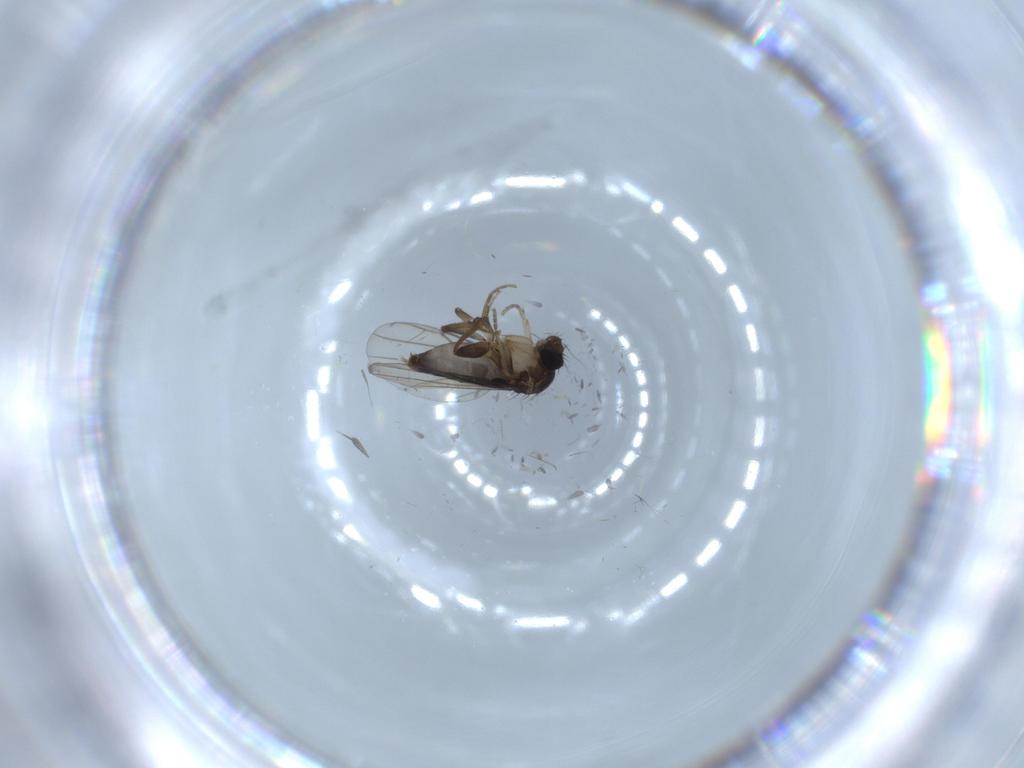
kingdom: Animalia
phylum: Arthropoda
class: Insecta
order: Diptera
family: Phoridae
